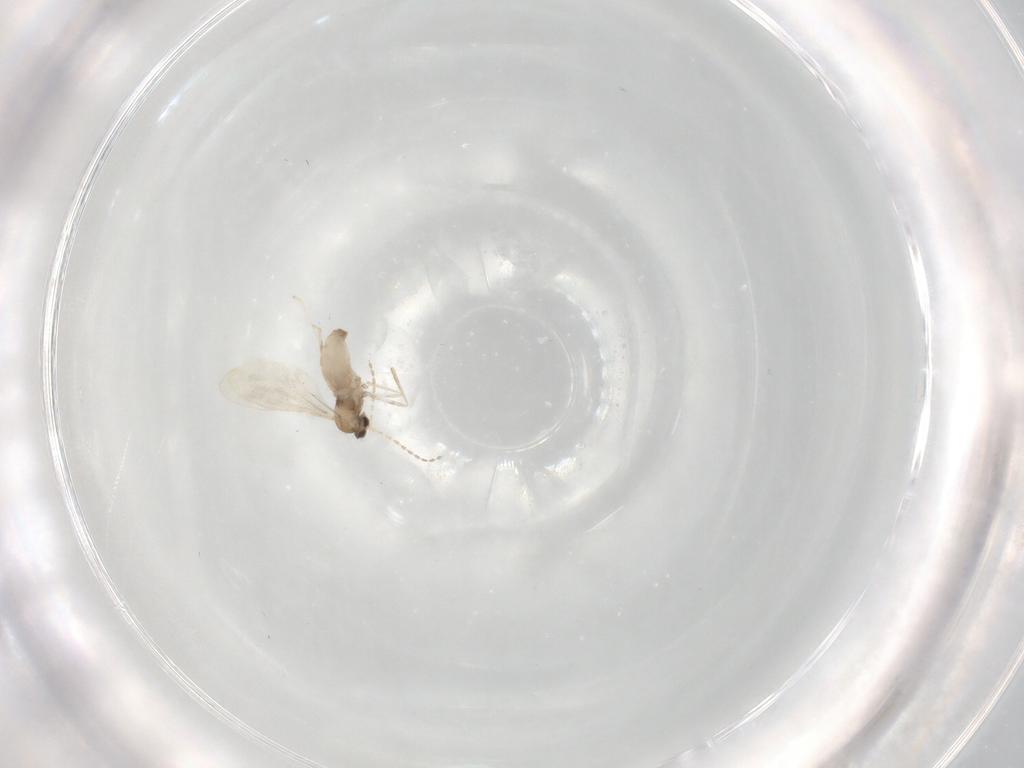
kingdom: Animalia
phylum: Arthropoda
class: Insecta
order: Diptera
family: Cecidomyiidae
